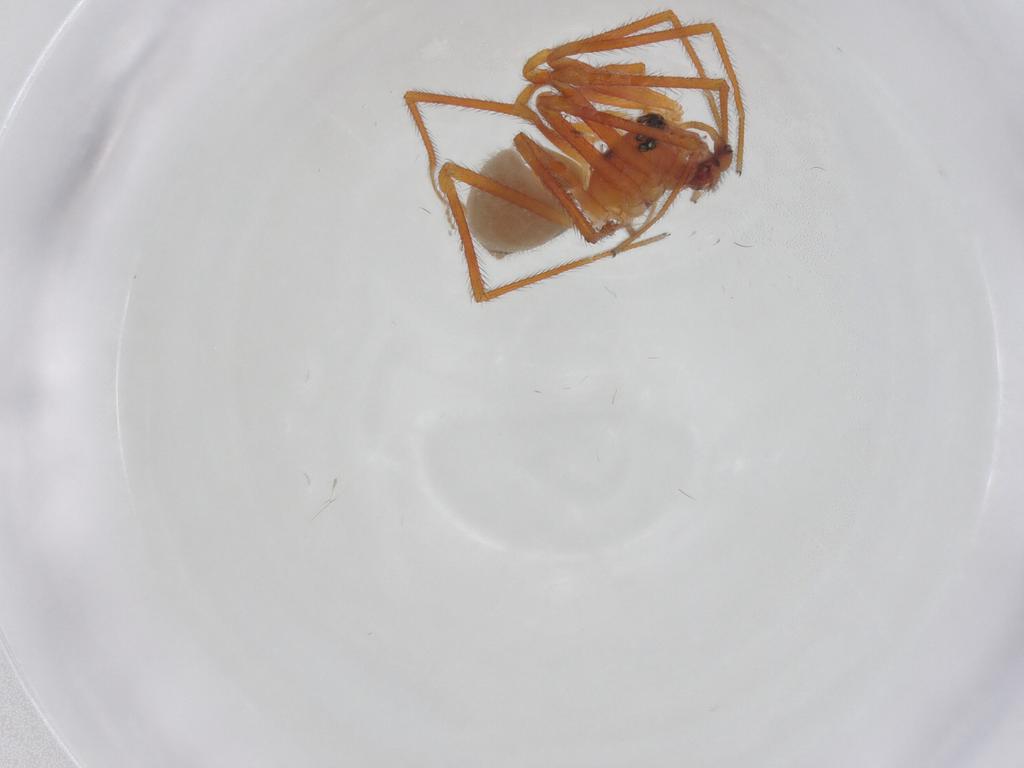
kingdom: Animalia
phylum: Arthropoda
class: Arachnida
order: Araneae
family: Linyphiidae
